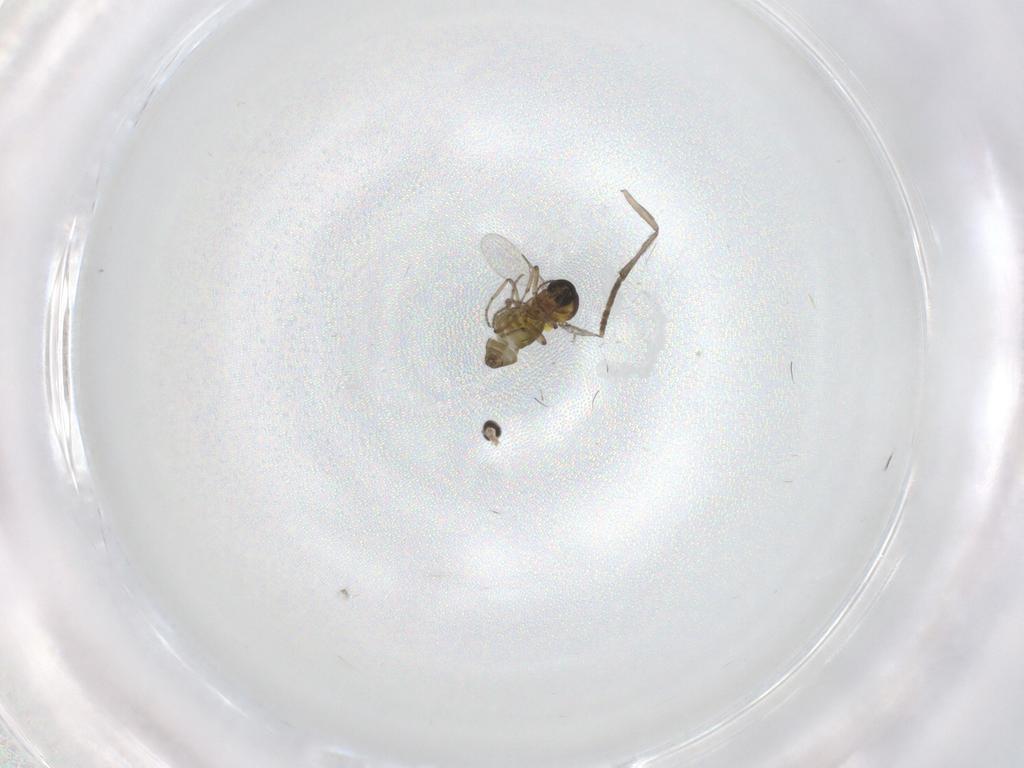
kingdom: Animalia
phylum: Arthropoda
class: Insecta
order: Diptera
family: Psychodidae
